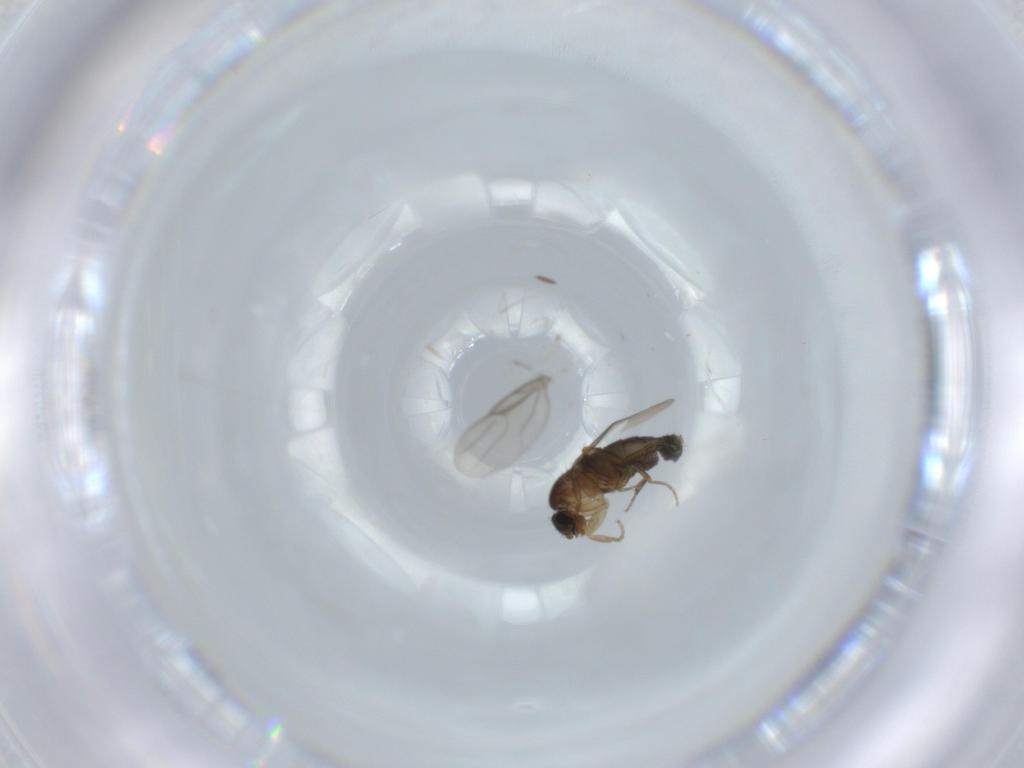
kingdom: Animalia
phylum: Arthropoda
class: Insecta
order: Diptera
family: Phoridae
